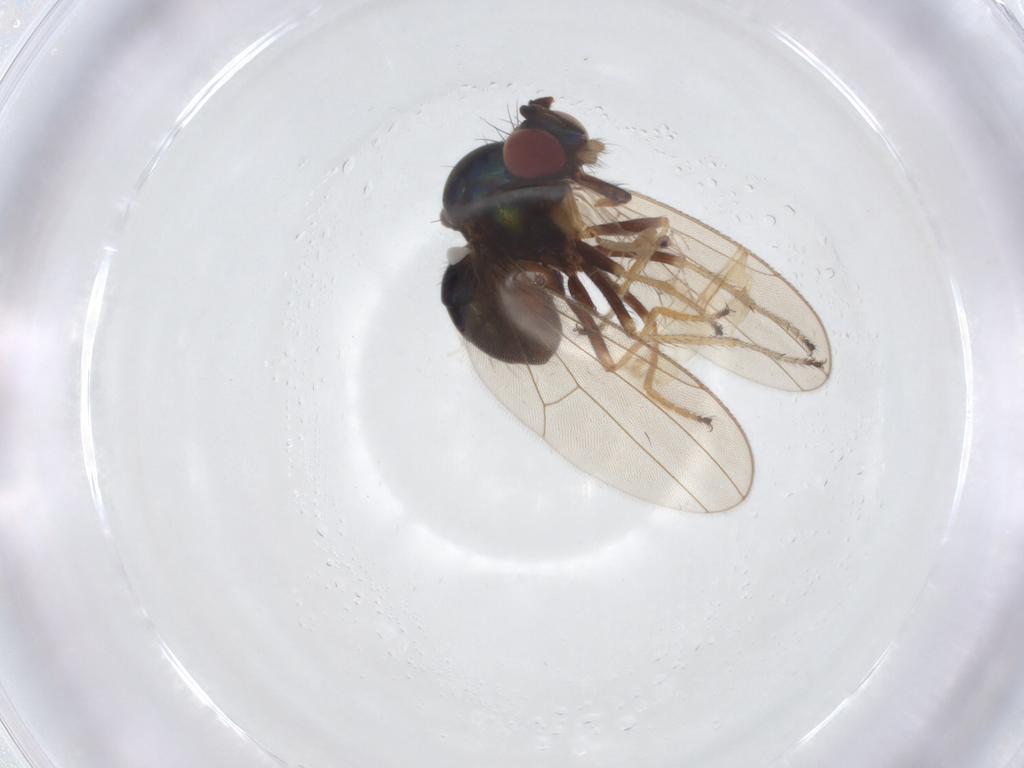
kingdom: Animalia
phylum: Arthropoda
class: Insecta
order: Diptera
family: Ephydridae
